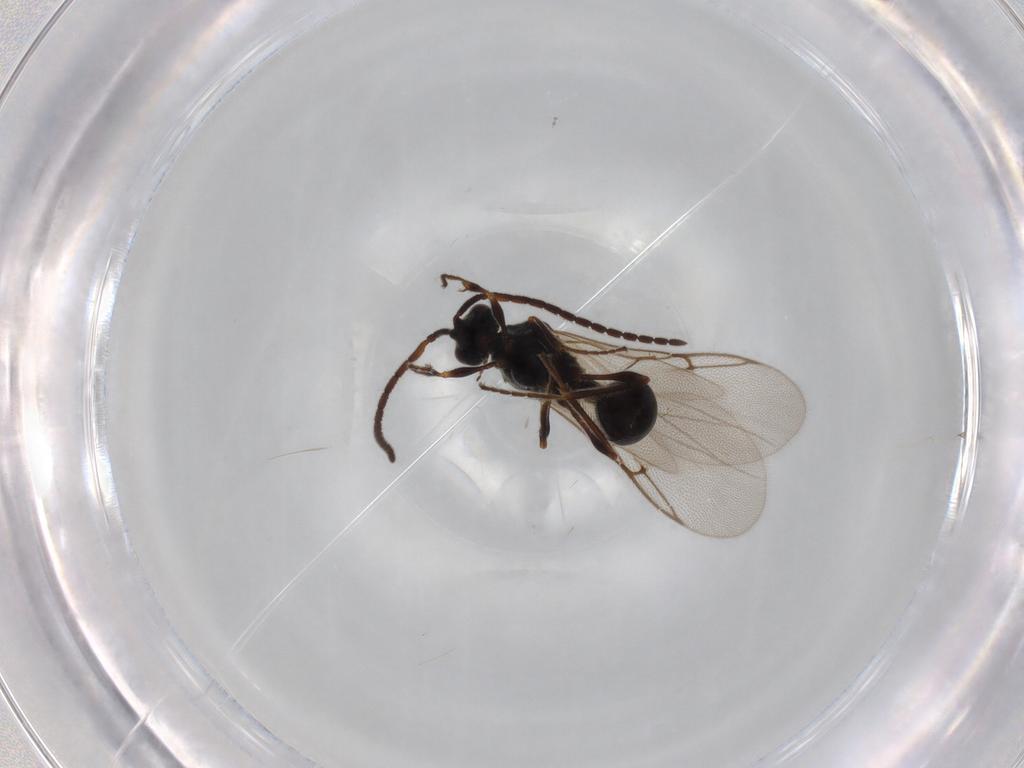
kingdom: Animalia
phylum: Arthropoda
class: Insecta
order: Hymenoptera
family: Diapriidae
